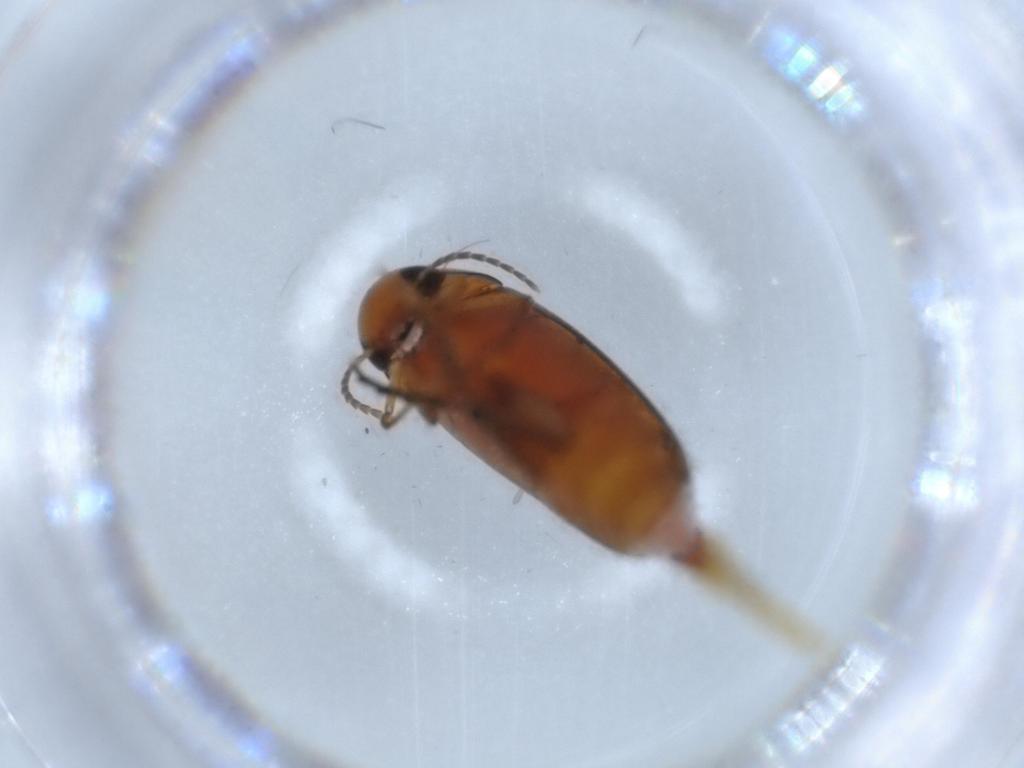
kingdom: Animalia
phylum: Arthropoda
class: Insecta
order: Coleoptera
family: Mordellidae
